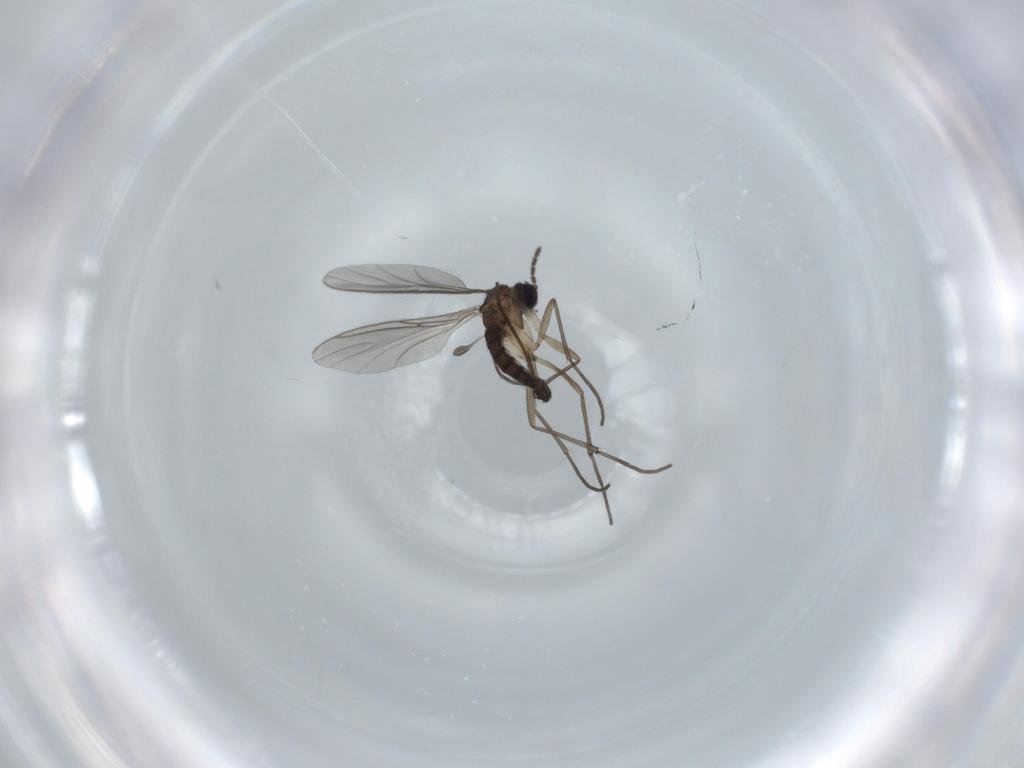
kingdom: Animalia
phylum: Arthropoda
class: Insecta
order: Diptera
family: Sciaridae
